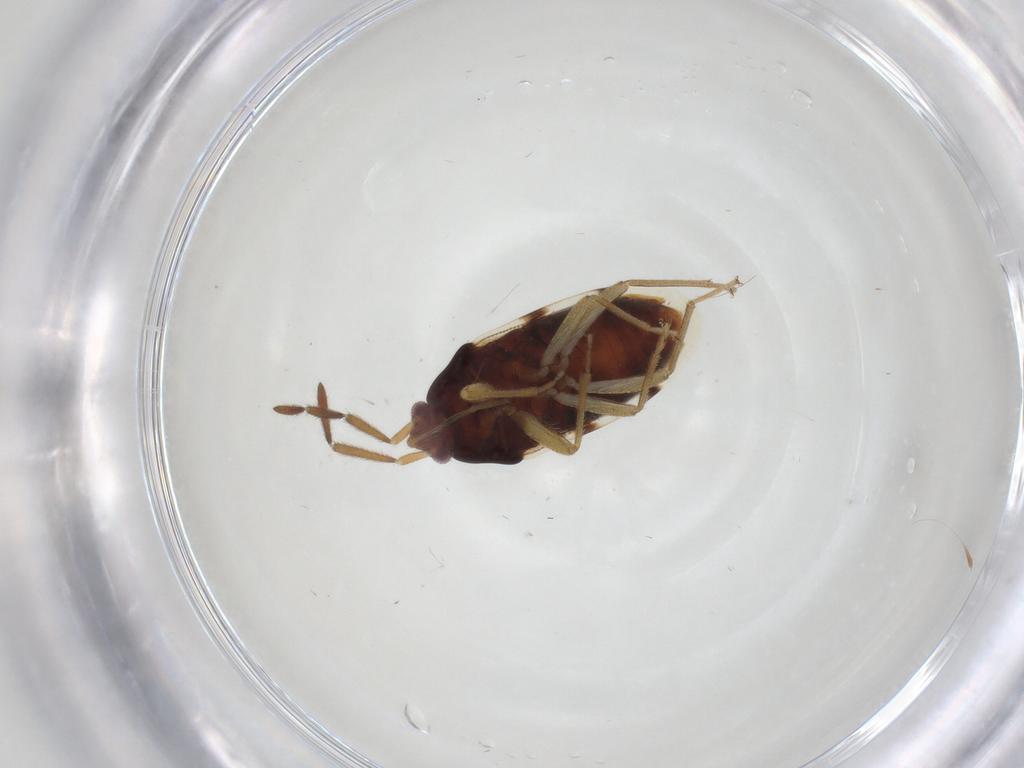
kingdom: Animalia
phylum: Arthropoda
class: Insecta
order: Hemiptera
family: Rhyparochromidae
